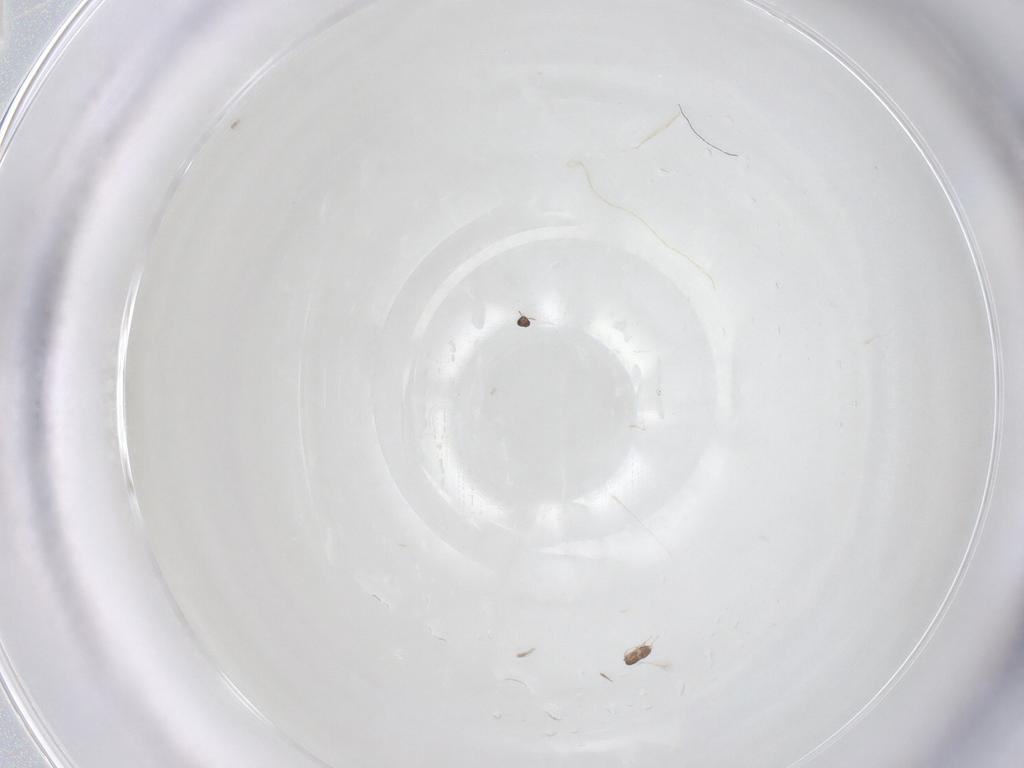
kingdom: Animalia
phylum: Arthropoda
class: Insecta
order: Hymenoptera
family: Mymaridae
